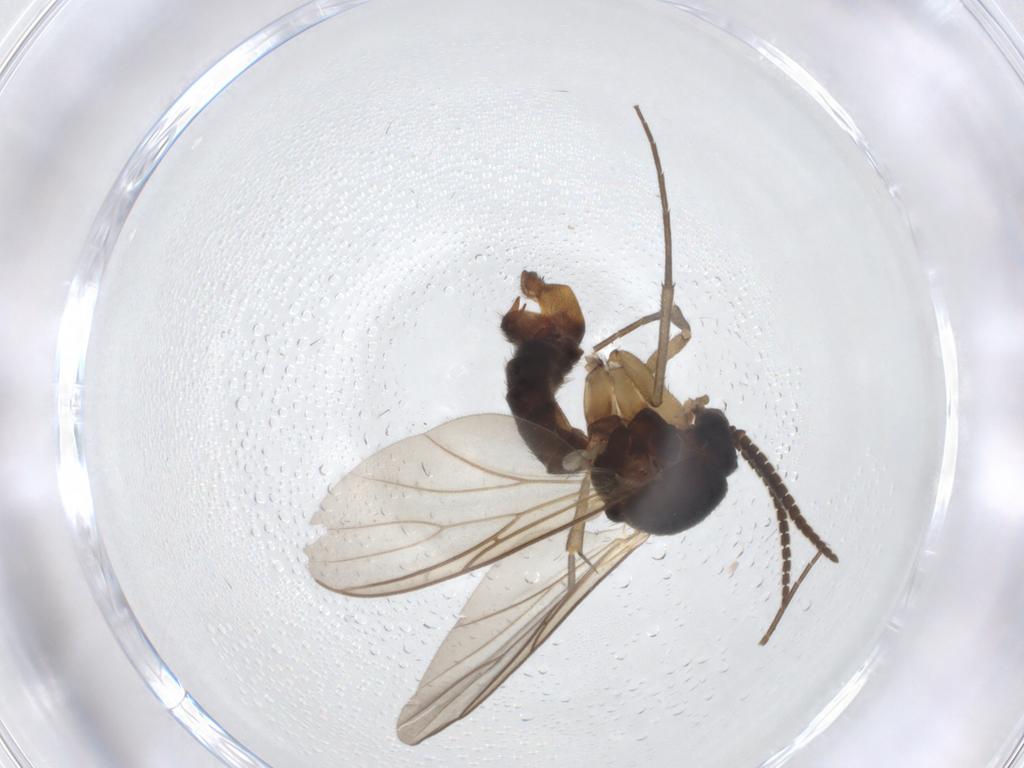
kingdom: Animalia
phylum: Arthropoda
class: Insecta
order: Diptera
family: Mycetophilidae
